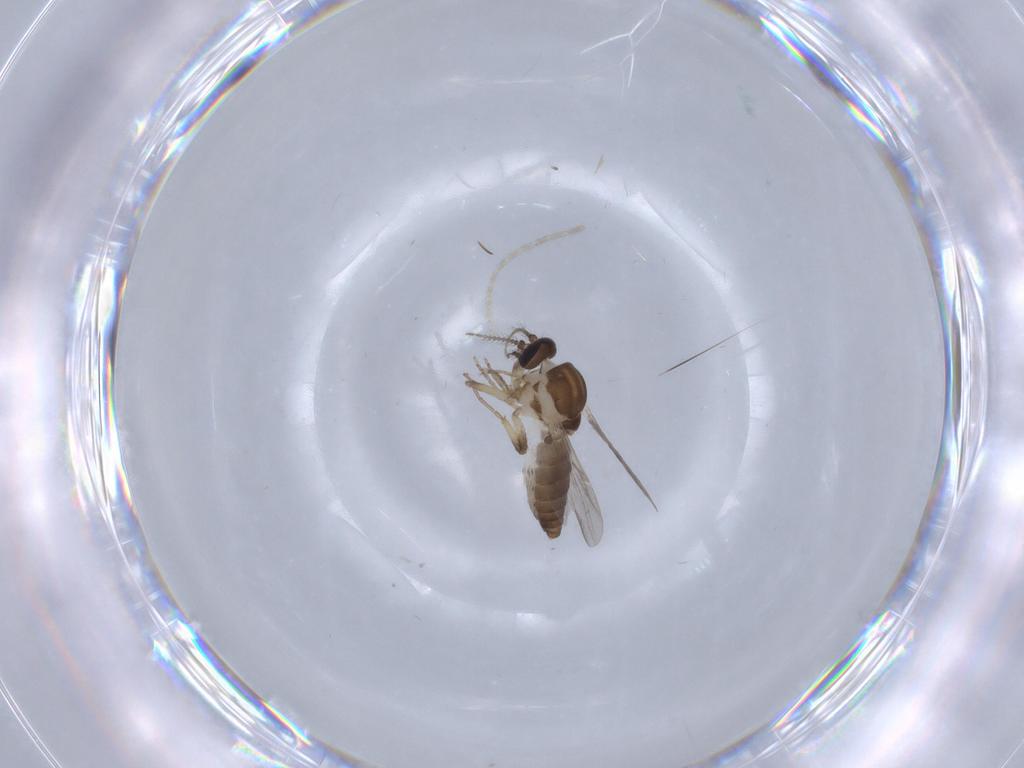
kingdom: Animalia
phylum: Arthropoda
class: Insecta
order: Diptera
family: Ceratopogonidae
